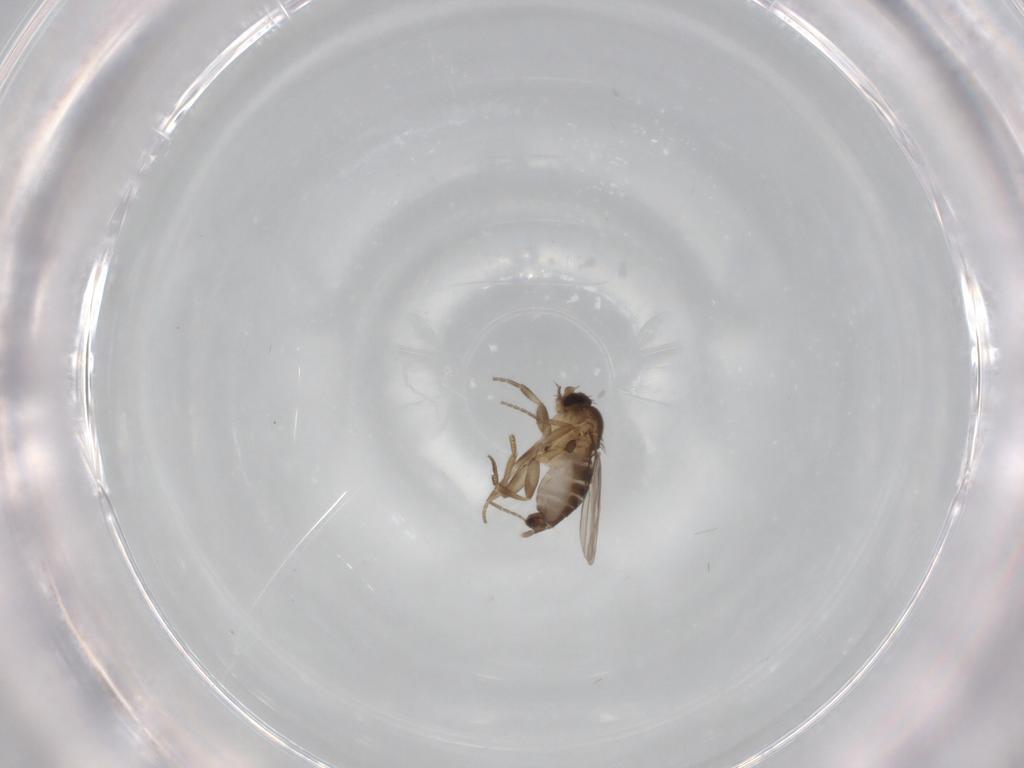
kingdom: Animalia
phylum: Arthropoda
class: Insecta
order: Diptera
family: Phoridae
